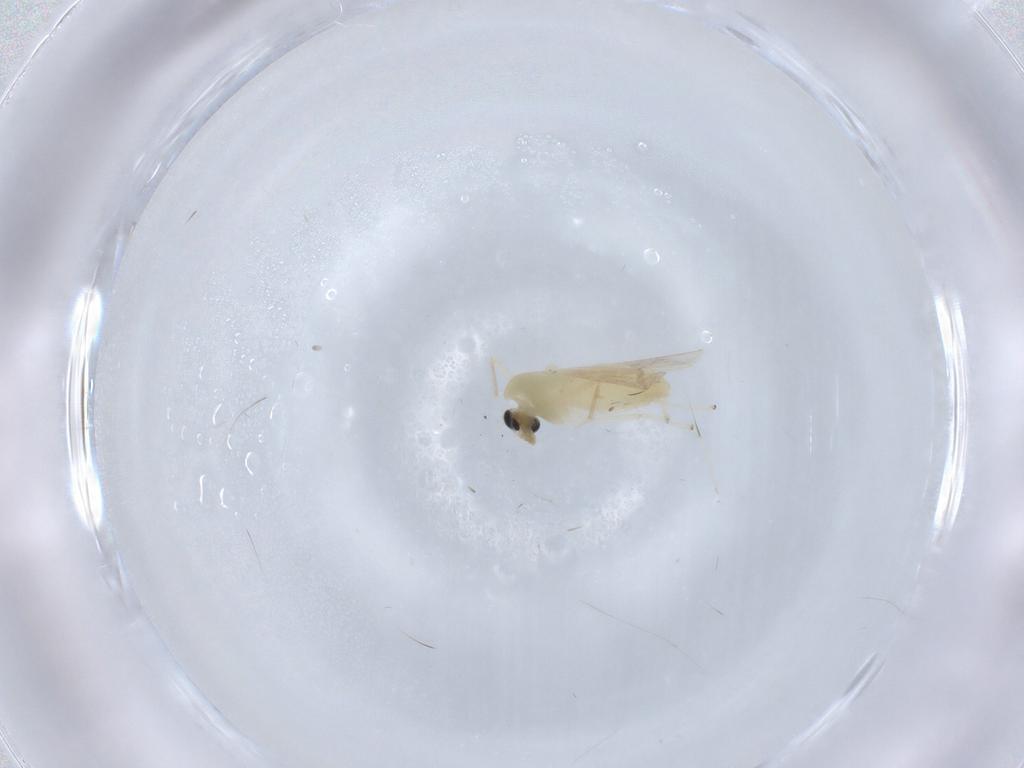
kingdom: Animalia
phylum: Arthropoda
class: Insecta
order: Diptera
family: Chironomidae
